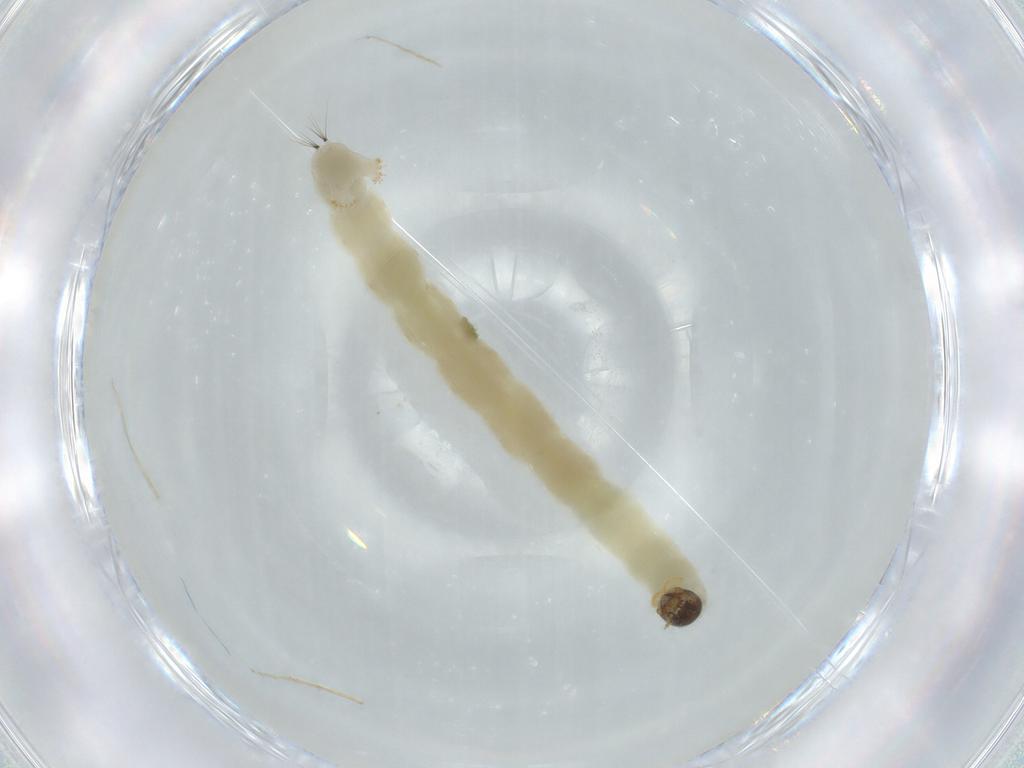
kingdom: Animalia
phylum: Arthropoda
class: Insecta
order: Diptera
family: Chironomidae
